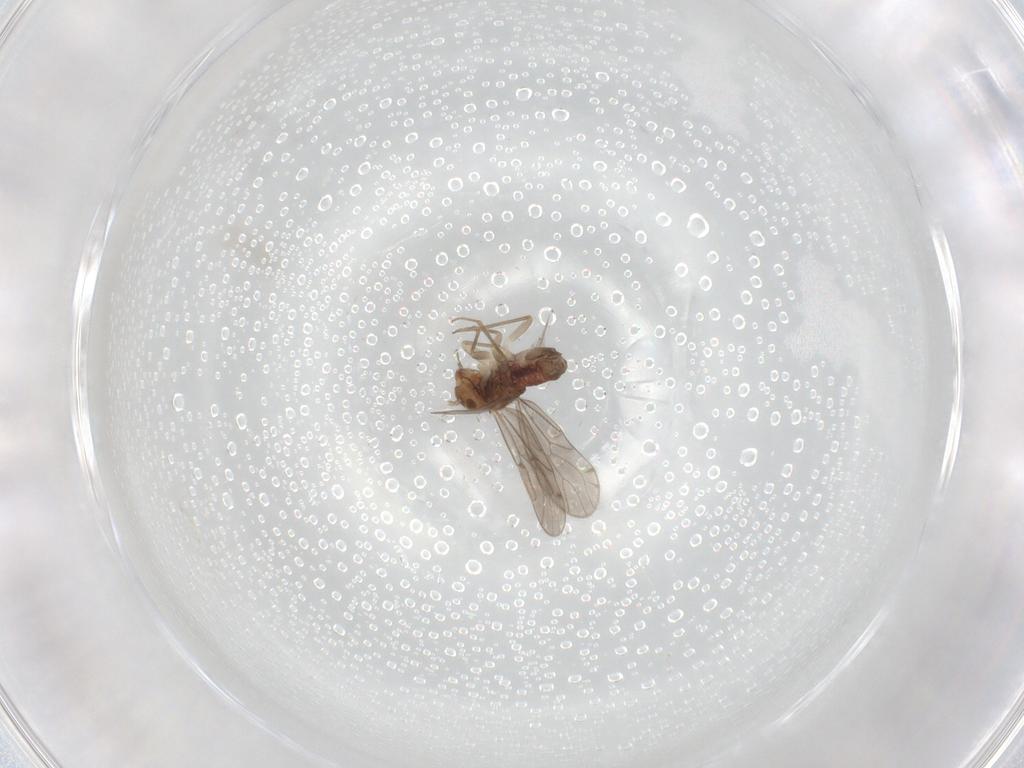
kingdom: Animalia
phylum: Arthropoda
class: Insecta
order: Psocodea
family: Ectopsocidae
